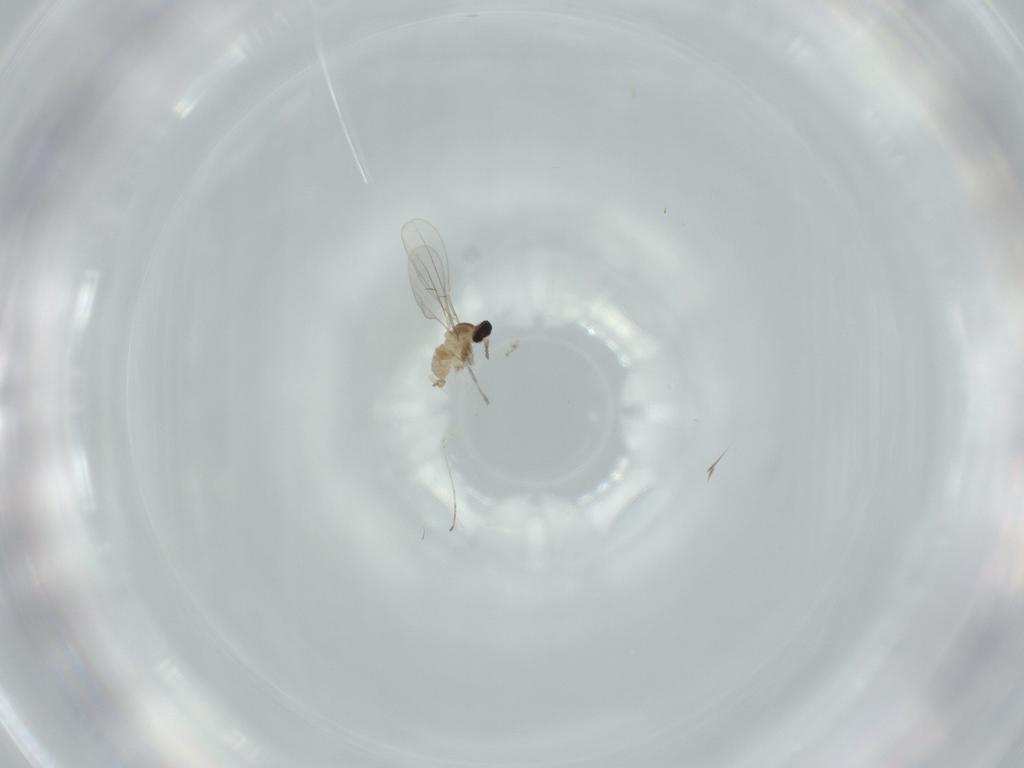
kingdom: Animalia
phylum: Arthropoda
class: Insecta
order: Diptera
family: Cecidomyiidae
